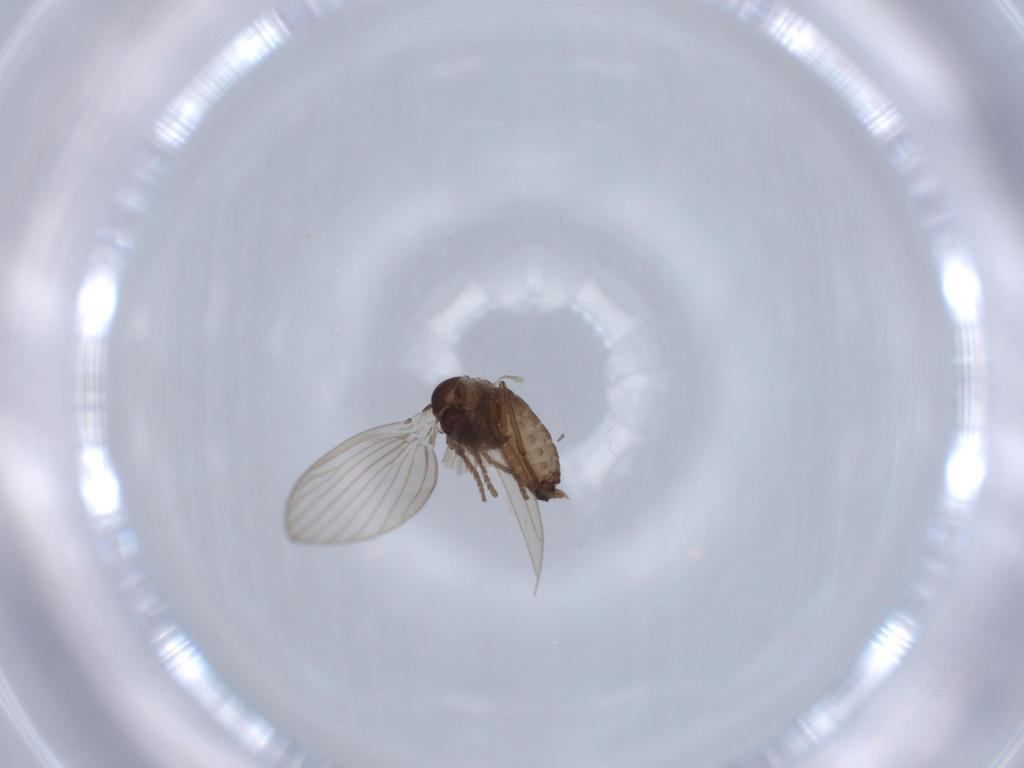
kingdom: Animalia
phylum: Arthropoda
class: Insecta
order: Diptera
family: Psychodidae
